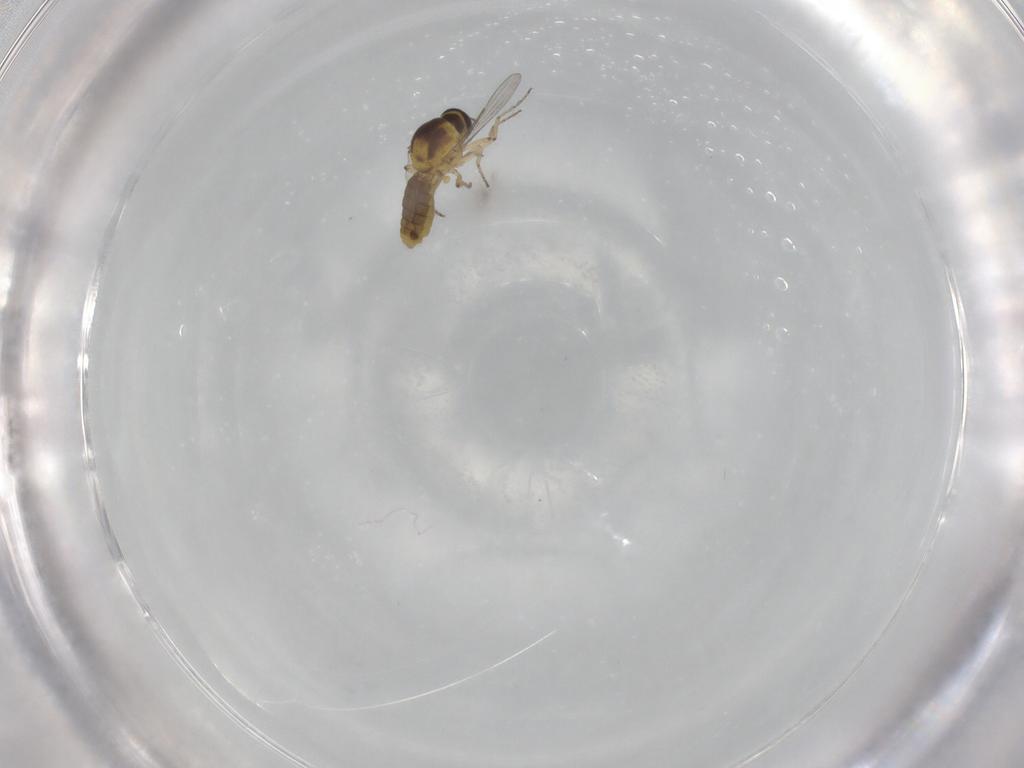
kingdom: Animalia
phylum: Arthropoda
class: Insecta
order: Diptera
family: Ceratopogonidae
